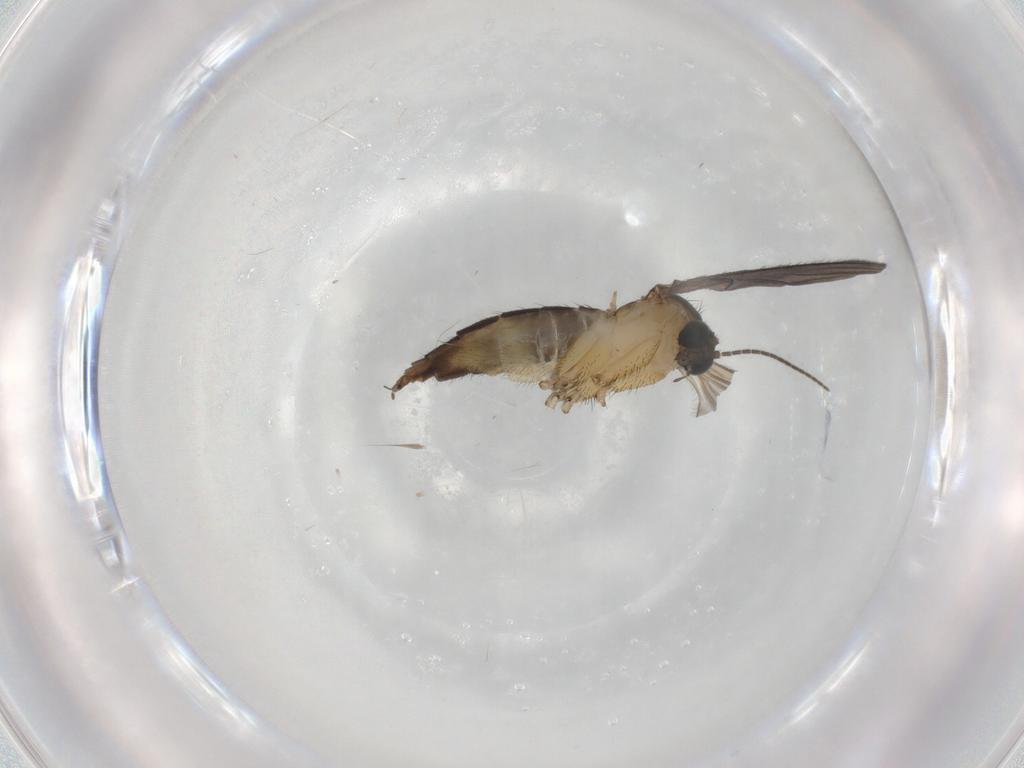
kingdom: Animalia
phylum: Arthropoda
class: Insecta
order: Diptera
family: Sciaridae
